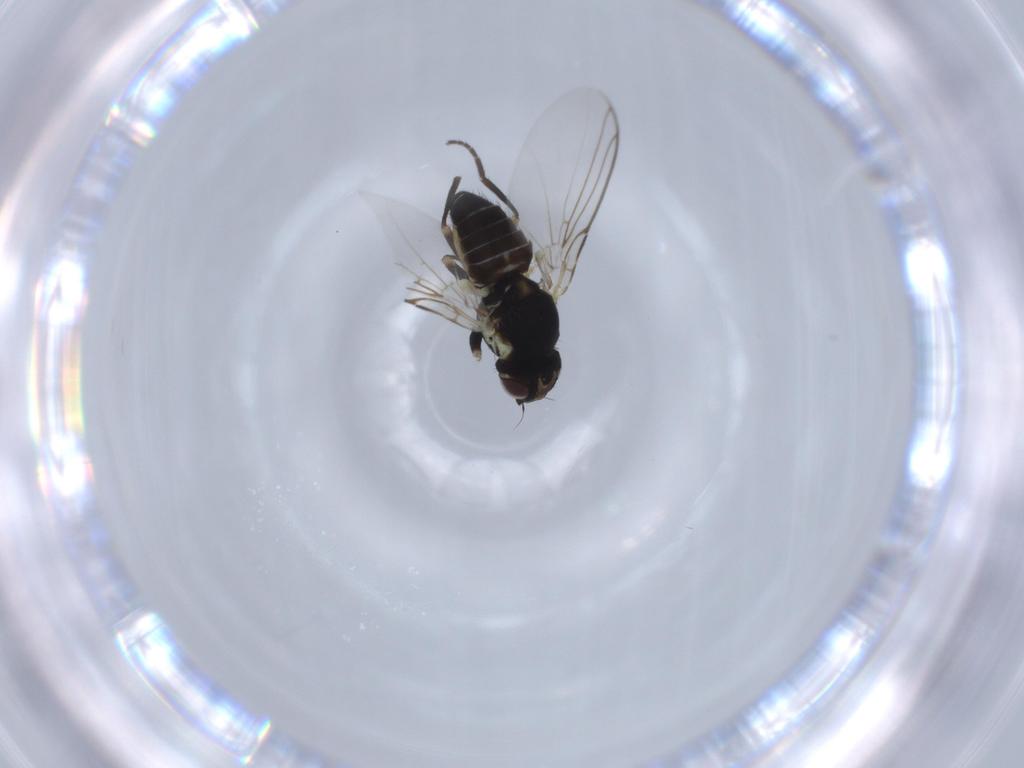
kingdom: Animalia
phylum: Arthropoda
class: Insecta
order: Diptera
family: Agromyzidae
